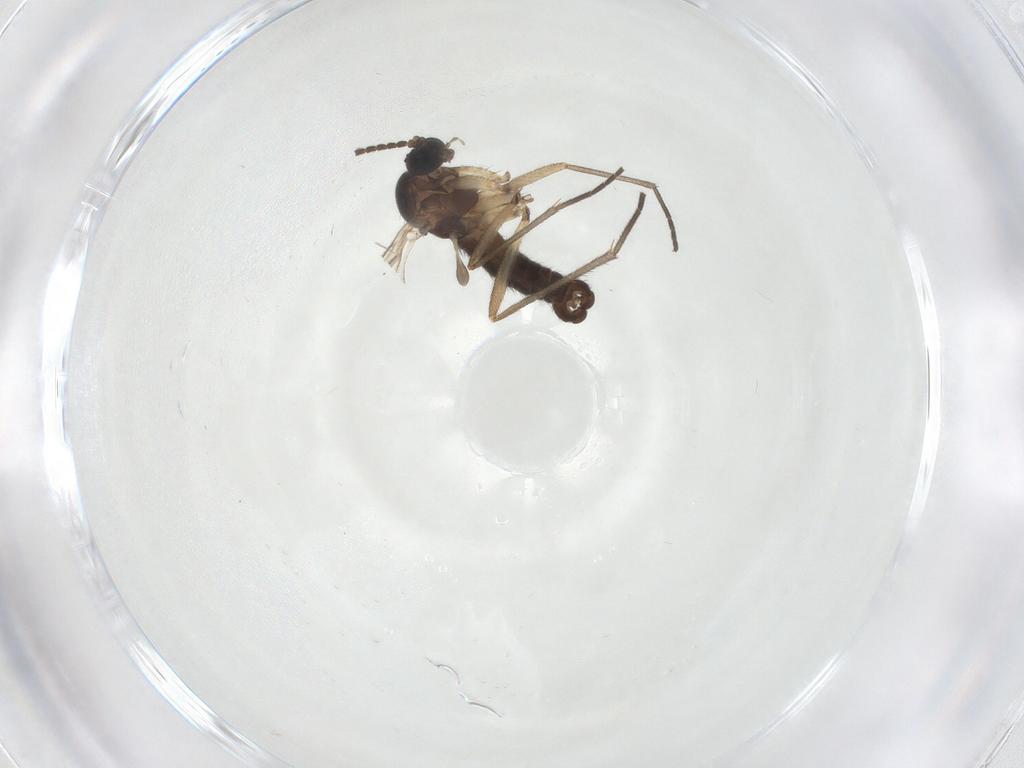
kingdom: Animalia
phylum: Arthropoda
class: Insecta
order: Diptera
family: Sciaridae
